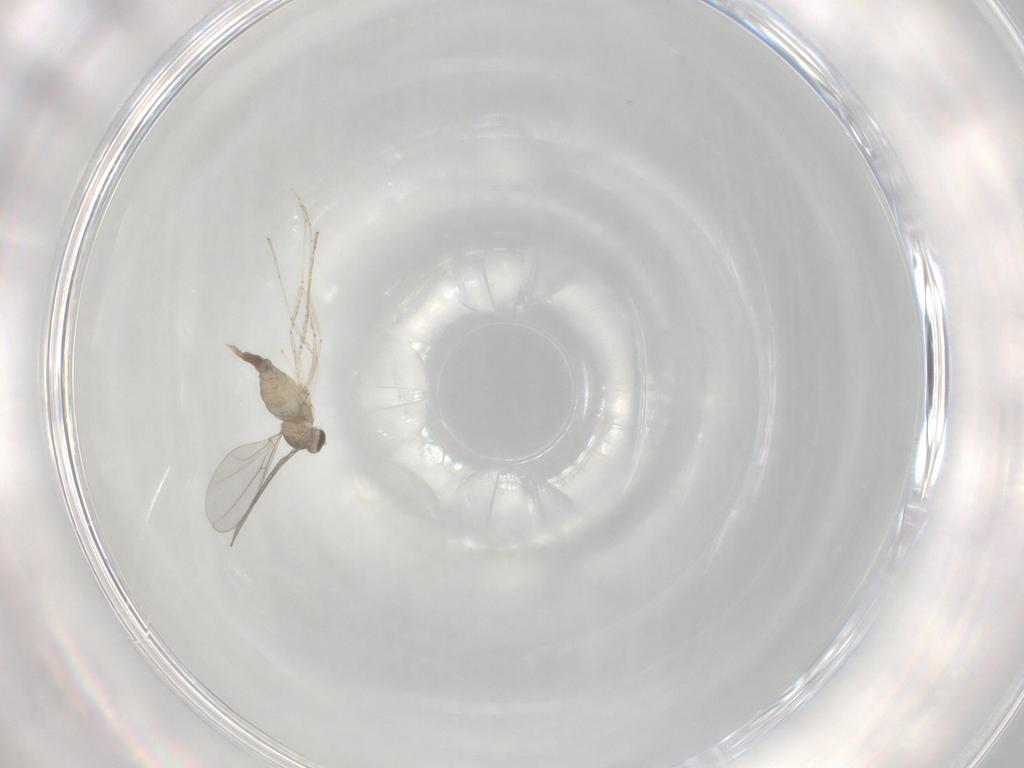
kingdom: Animalia
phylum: Arthropoda
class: Insecta
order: Diptera
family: Cecidomyiidae
